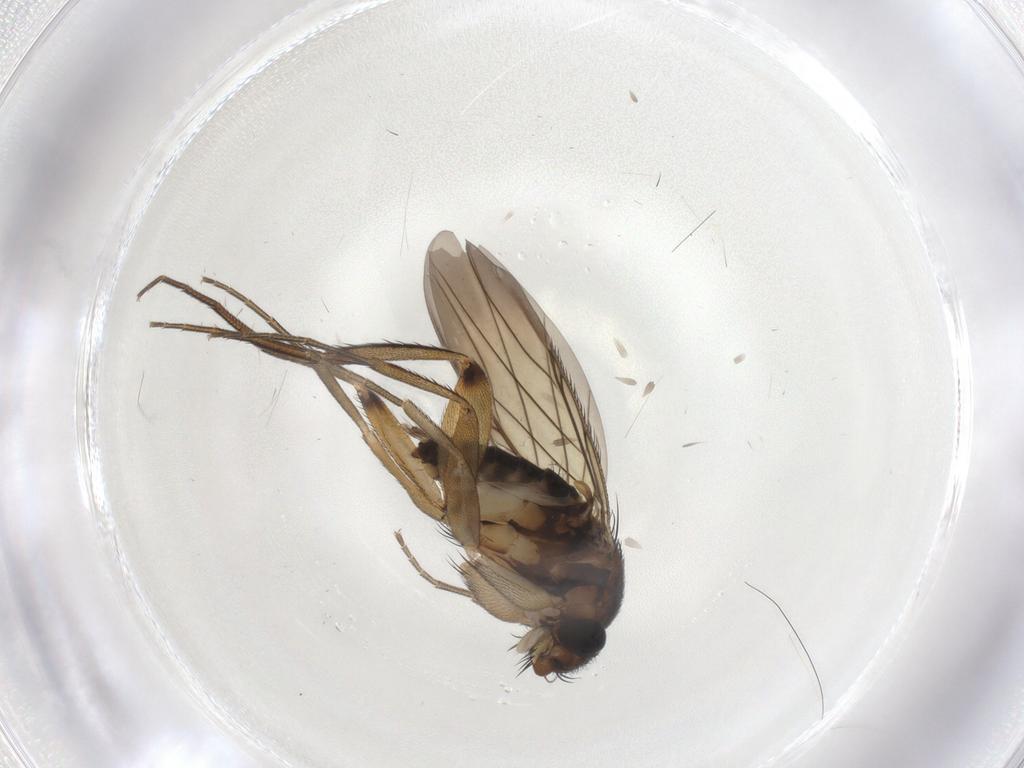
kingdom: Animalia
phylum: Arthropoda
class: Insecta
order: Diptera
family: Phoridae
